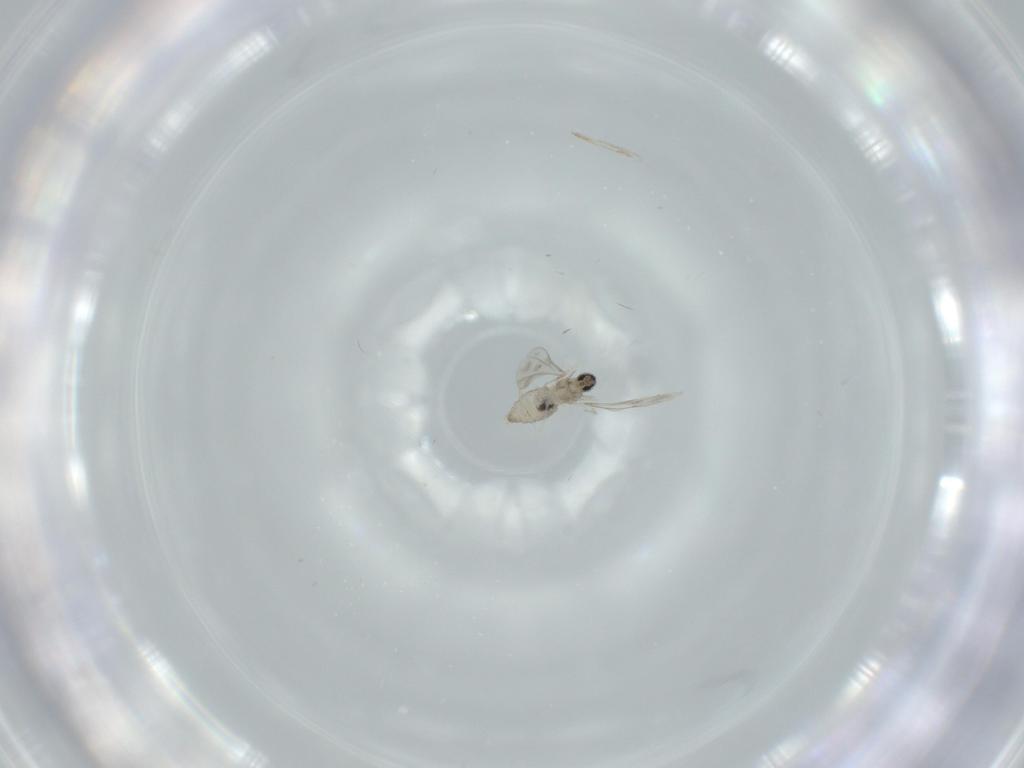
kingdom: Animalia
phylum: Arthropoda
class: Insecta
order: Diptera
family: Cecidomyiidae
